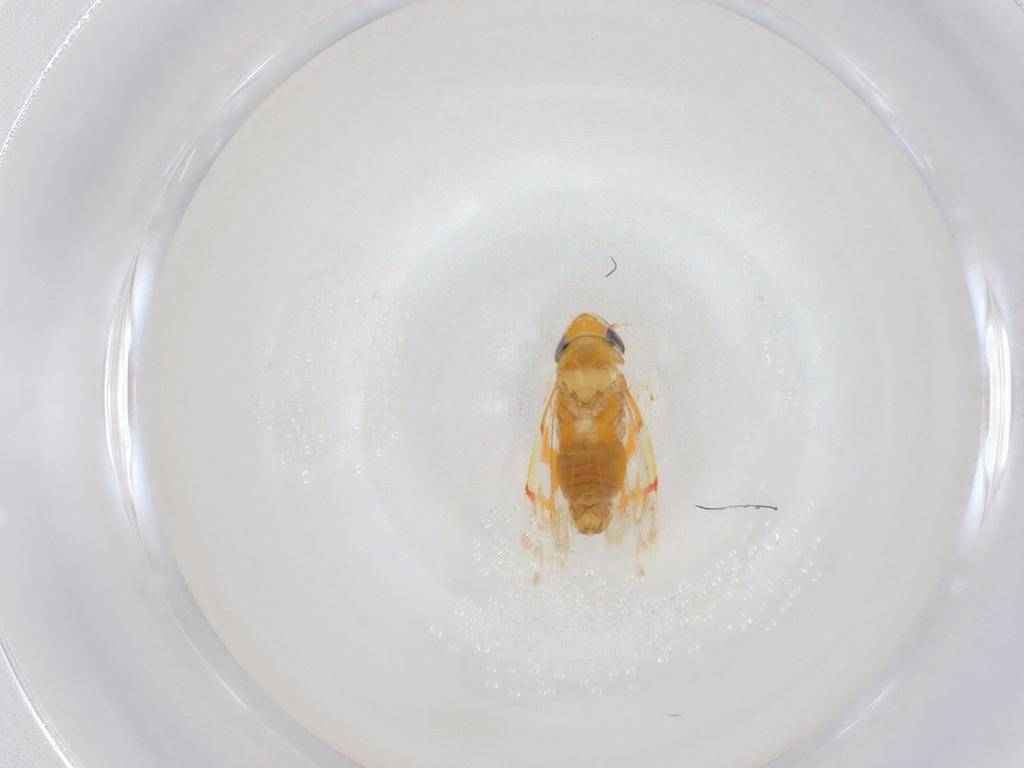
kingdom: Animalia
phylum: Arthropoda
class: Insecta
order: Hemiptera
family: Cicadellidae
